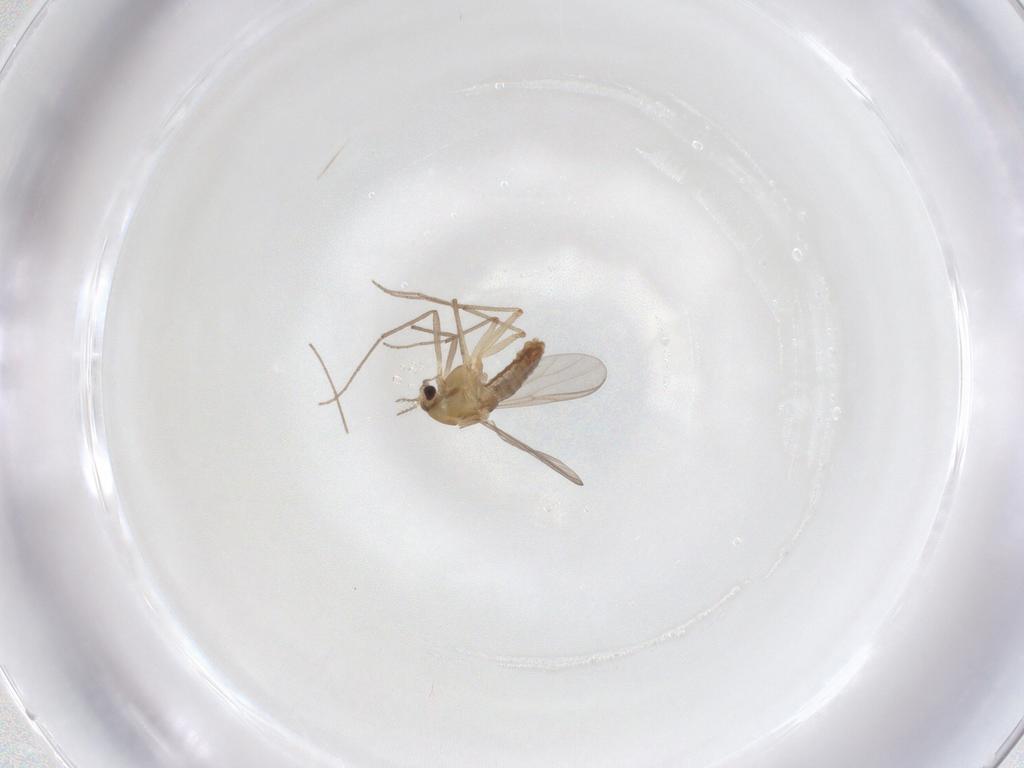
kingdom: Animalia
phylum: Arthropoda
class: Insecta
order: Diptera
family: Chironomidae
